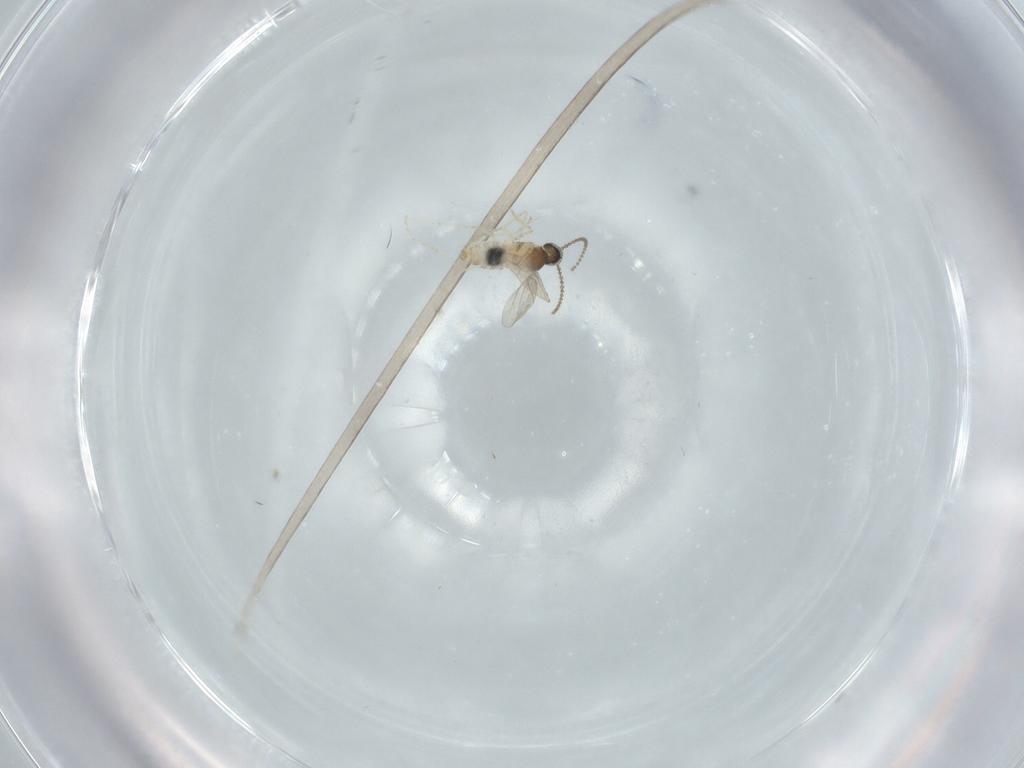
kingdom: Animalia
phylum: Arthropoda
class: Insecta
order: Diptera
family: Cecidomyiidae
